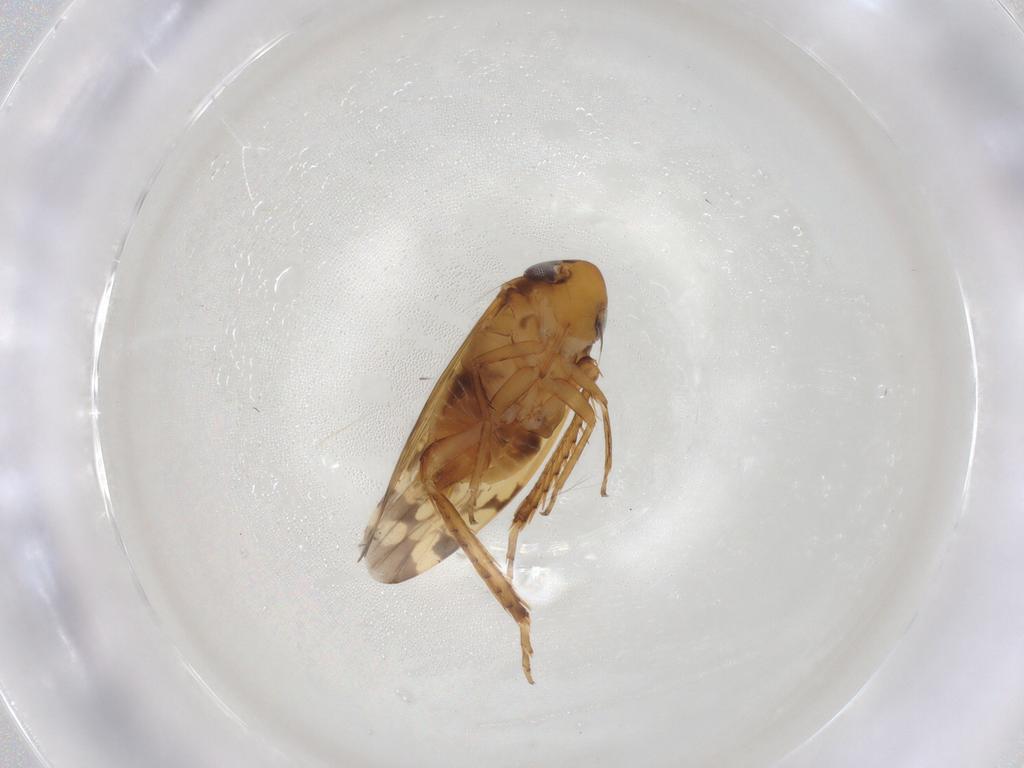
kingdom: Animalia
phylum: Arthropoda
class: Insecta
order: Hemiptera
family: Cicadellidae
